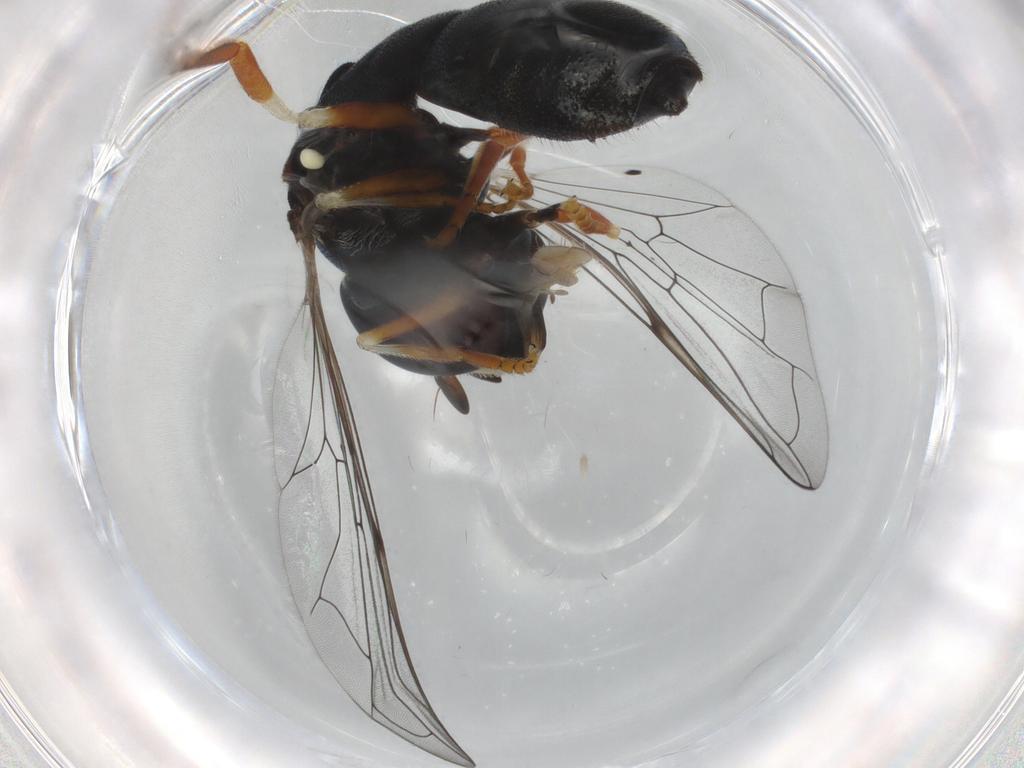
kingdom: Animalia
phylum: Arthropoda
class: Insecta
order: Diptera
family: Syrphidae
